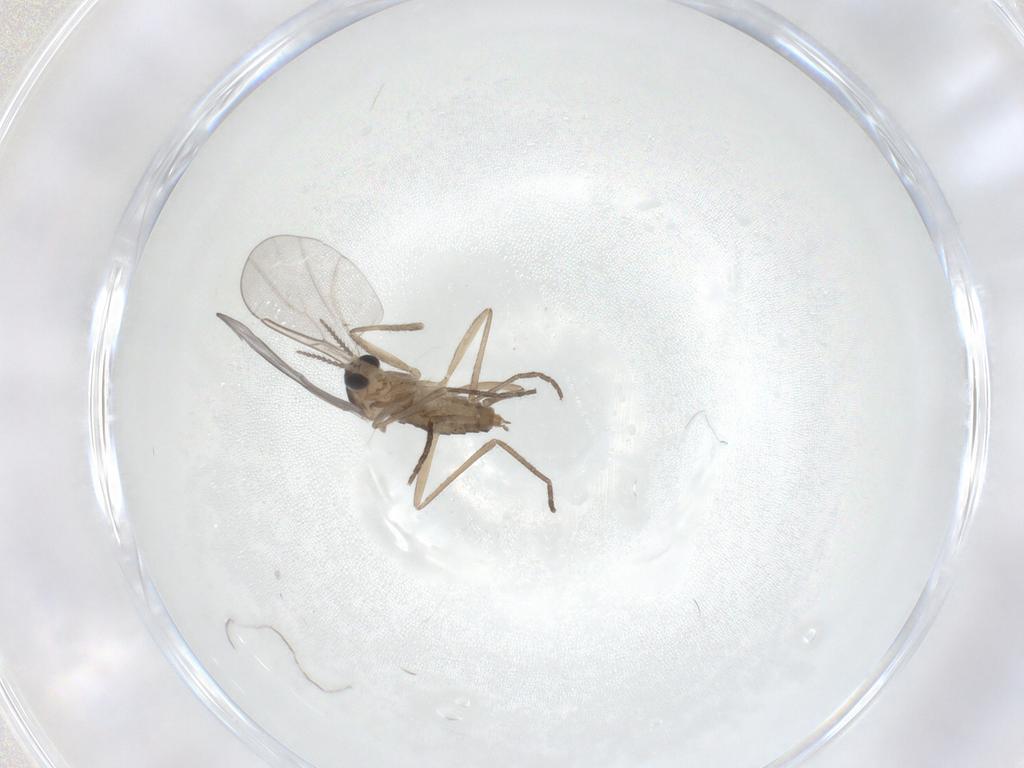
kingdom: Animalia
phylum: Arthropoda
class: Insecta
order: Diptera
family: Cecidomyiidae
